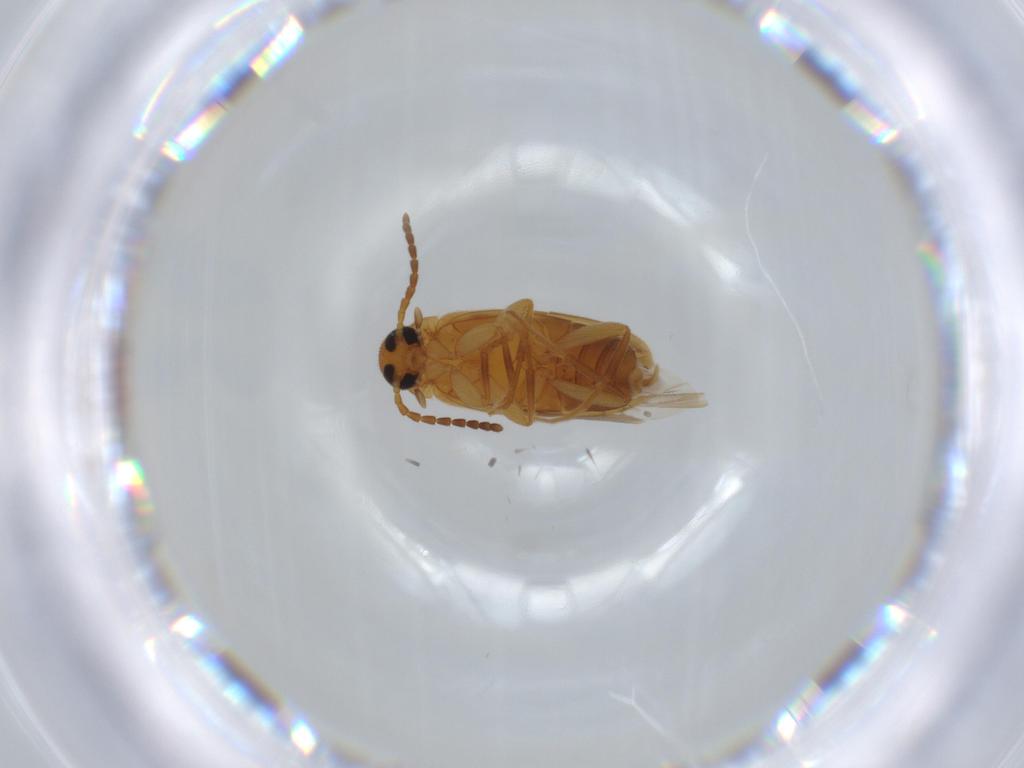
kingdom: Animalia
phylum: Arthropoda
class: Insecta
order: Coleoptera
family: Scraptiidae
